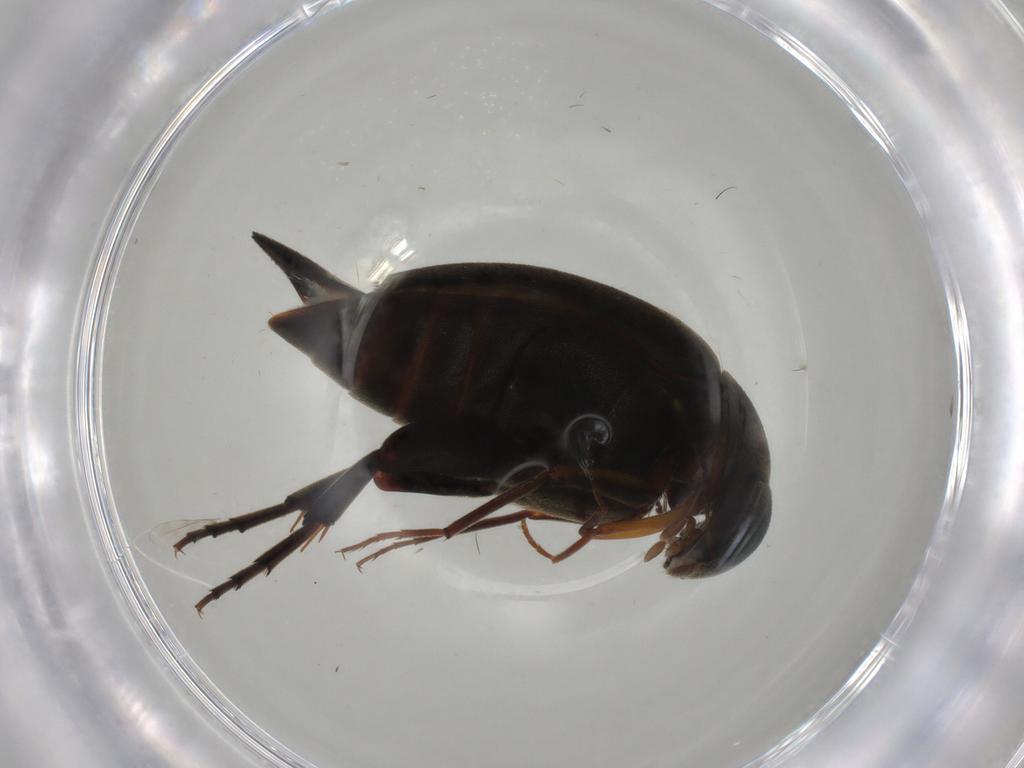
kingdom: Animalia
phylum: Arthropoda
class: Insecta
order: Coleoptera
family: Mordellidae
